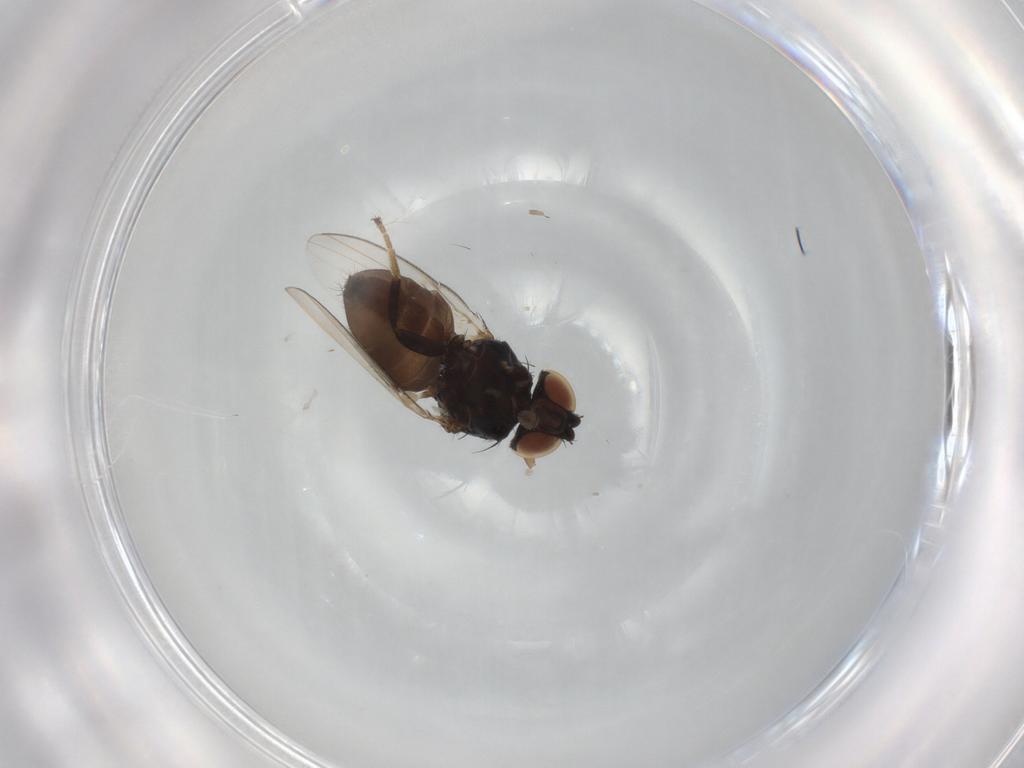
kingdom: Animalia
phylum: Arthropoda
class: Insecta
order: Diptera
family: Milichiidae
